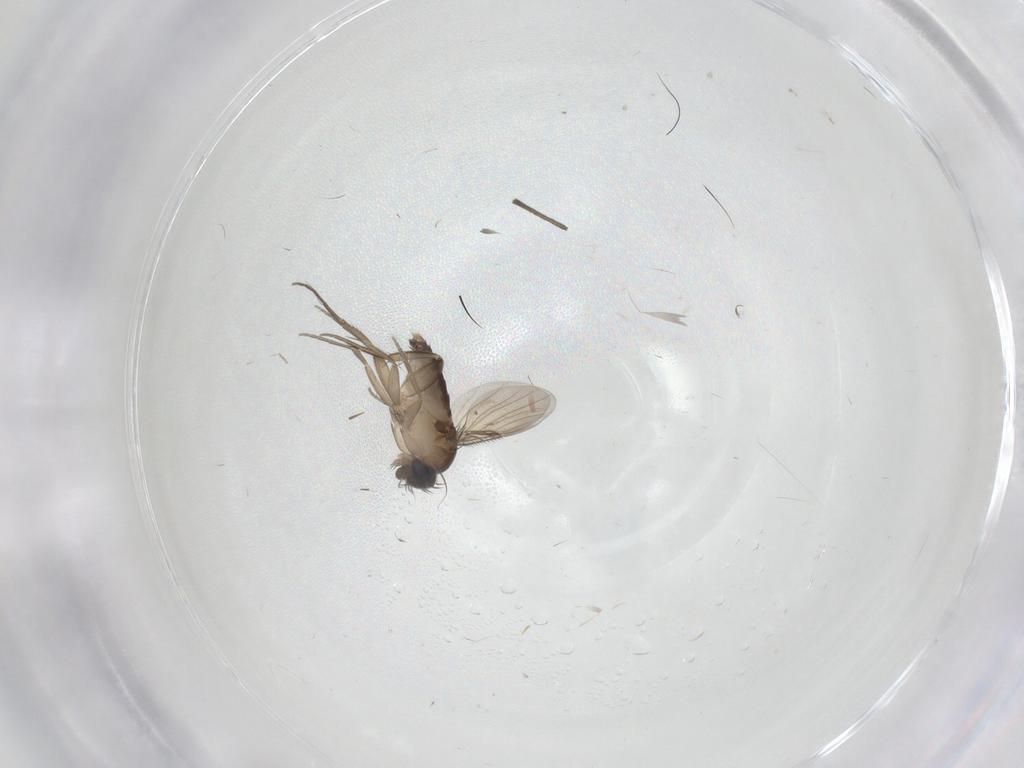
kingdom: Animalia
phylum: Arthropoda
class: Insecta
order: Diptera
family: Phoridae
